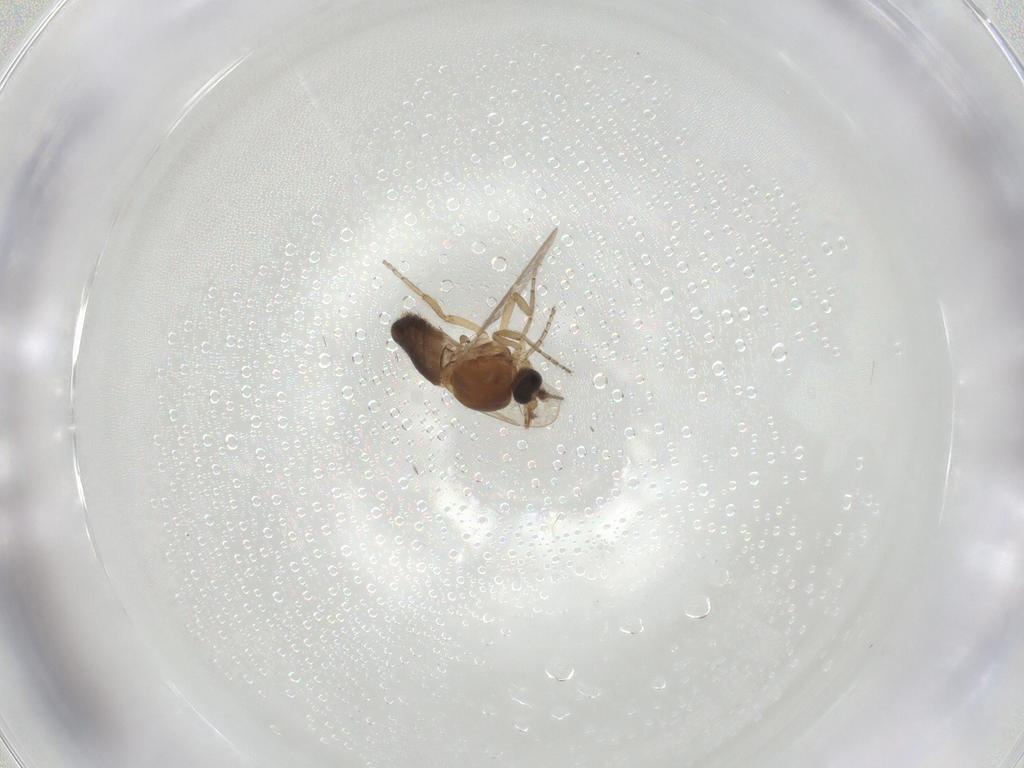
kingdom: Animalia
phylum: Arthropoda
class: Insecta
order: Diptera
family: Ceratopogonidae
